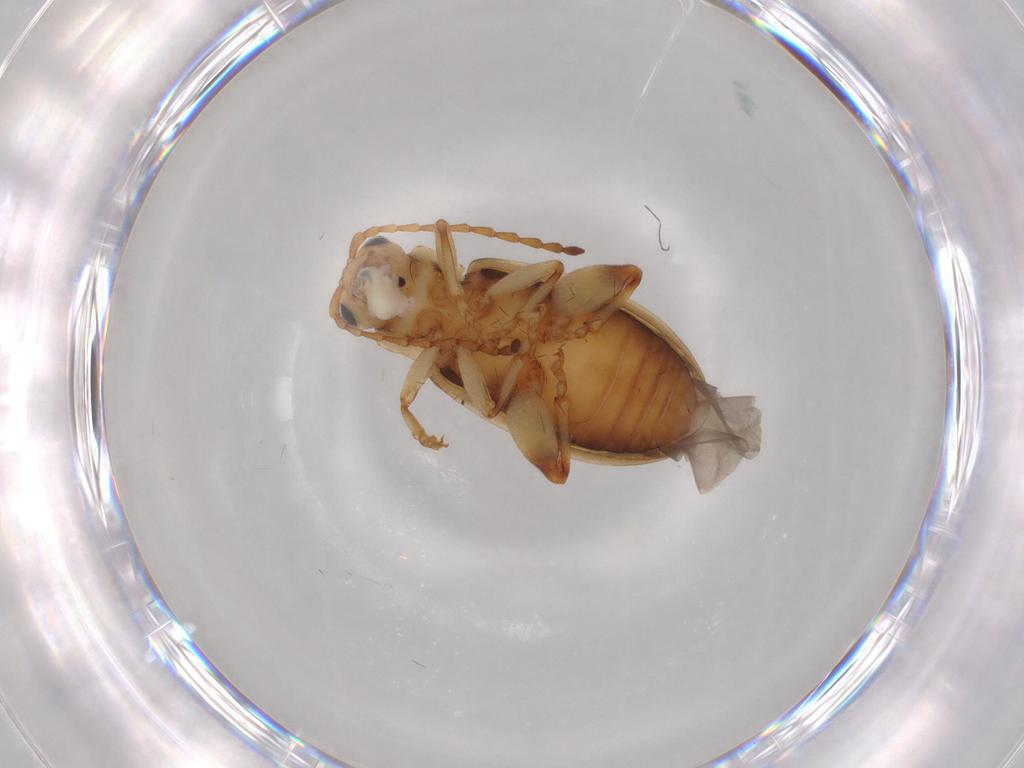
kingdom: Animalia
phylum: Arthropoda
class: Insecta
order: Coleoptera
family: Chrysomelidae
